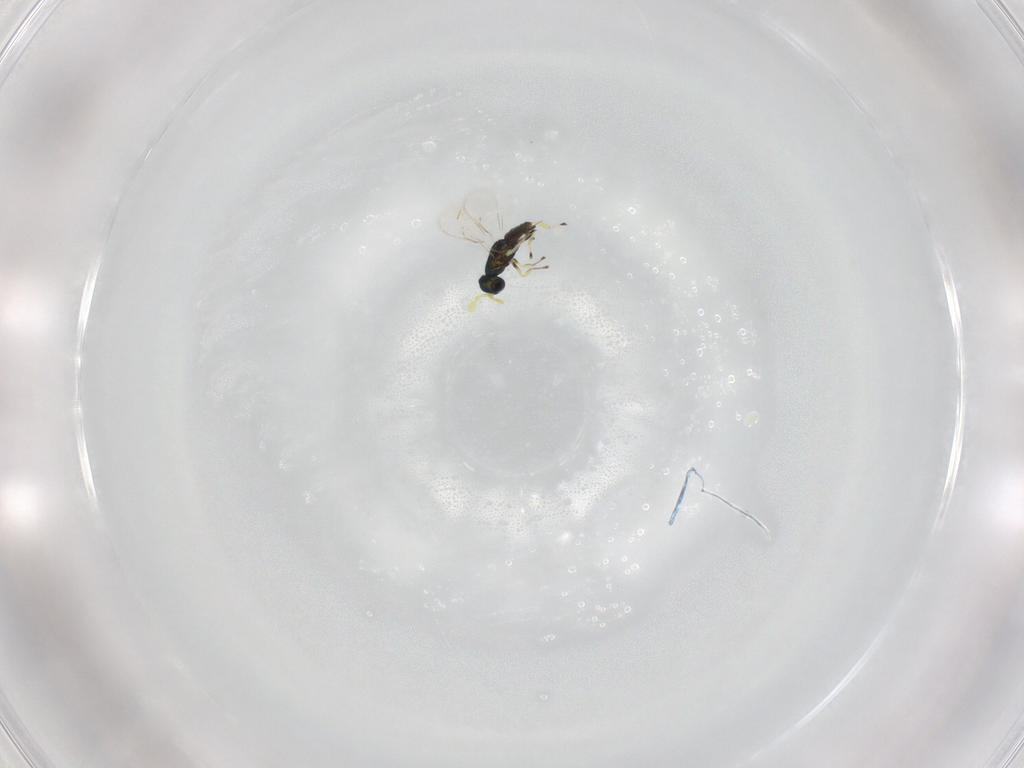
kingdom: Animalia
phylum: Arthropoda
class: Insecta
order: Hymenoptera
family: Eulophidae
